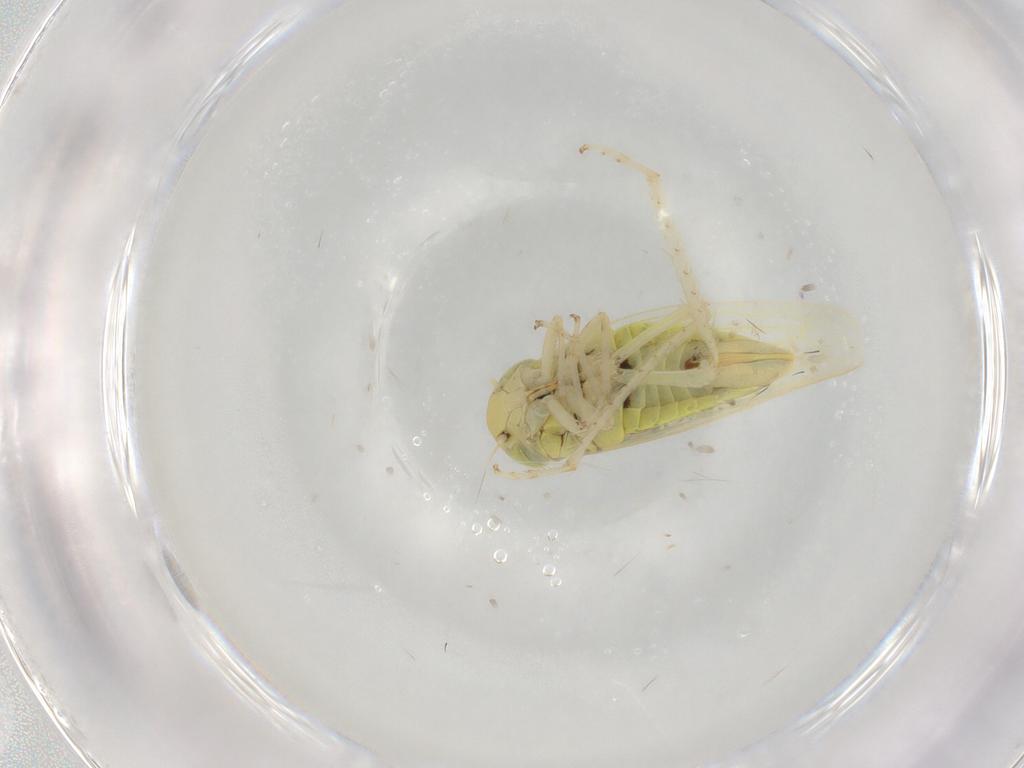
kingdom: Animalia
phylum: Arthropoda
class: Insecta
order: Hemiptera
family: Cicadellidae
